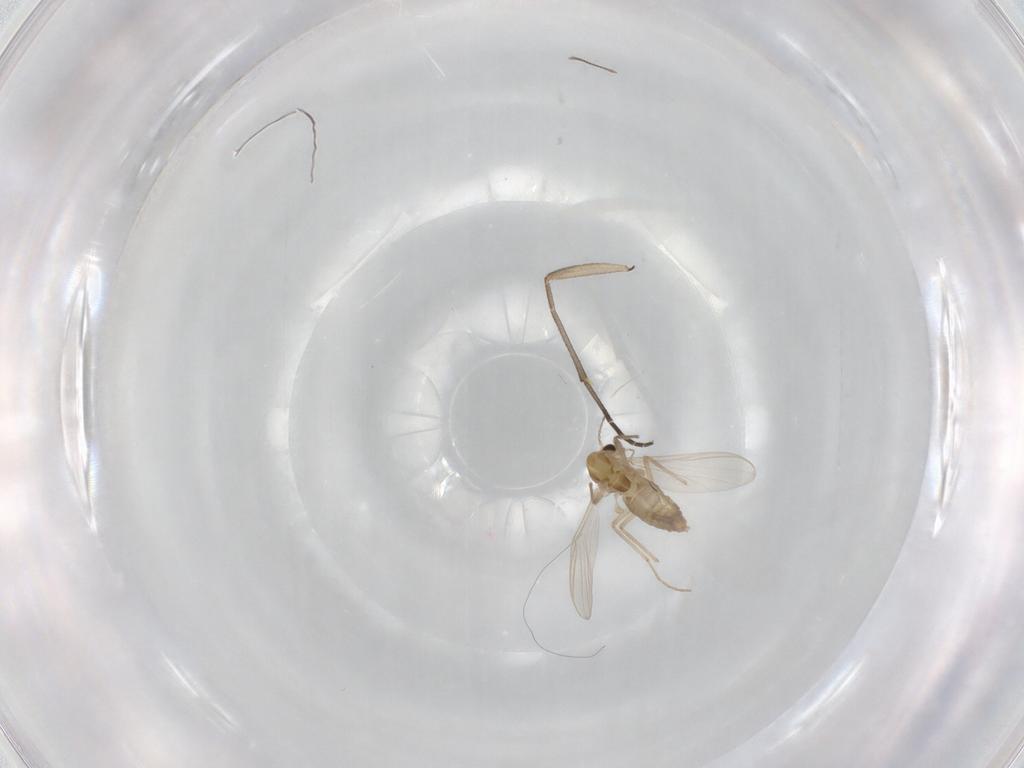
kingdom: Animalia
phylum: Arthropoda
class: Insecta
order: Diptera
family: Chironomidae
